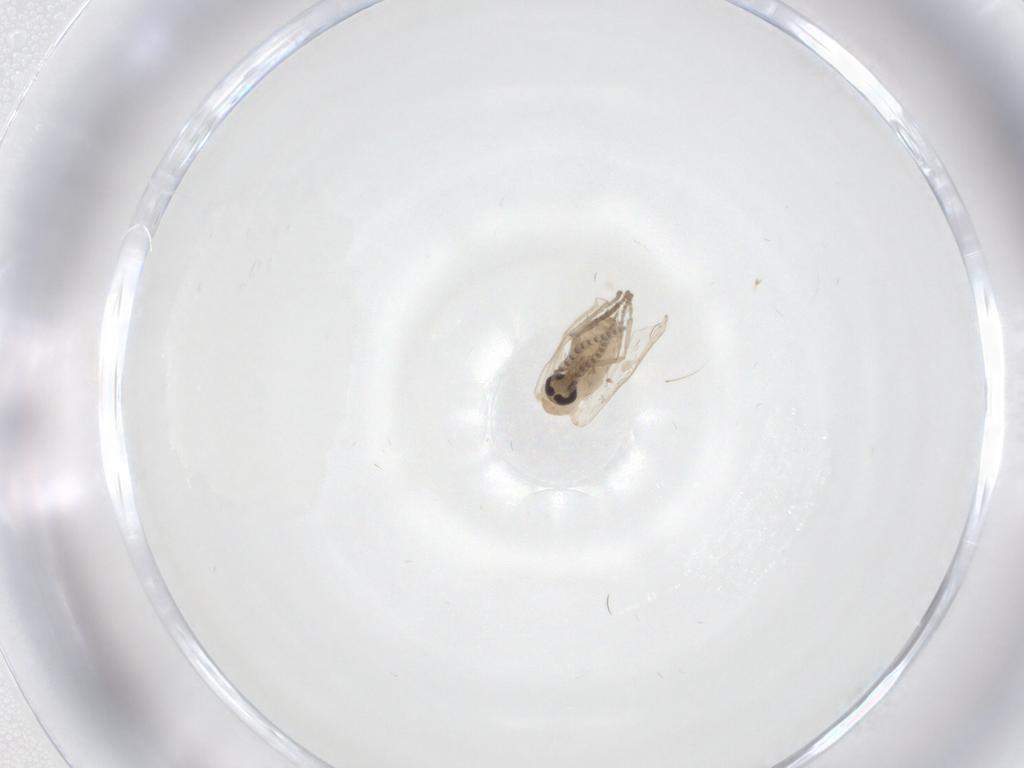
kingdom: Animalia
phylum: Arthropoda
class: Insecta
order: Diptera
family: Psychodidae
